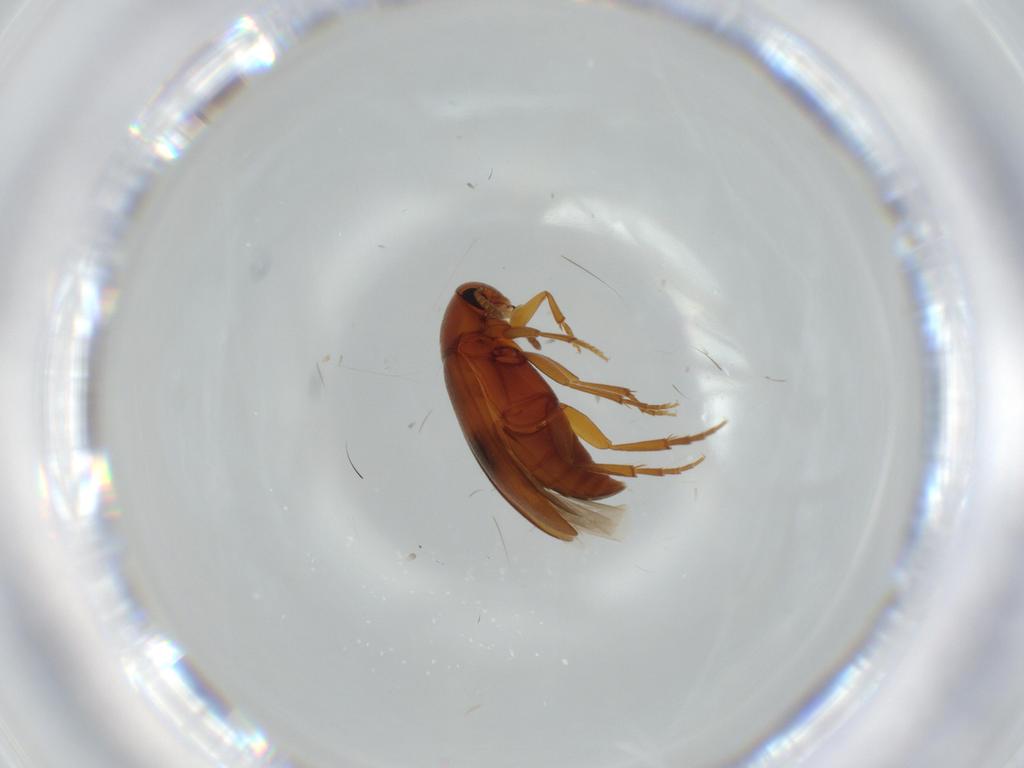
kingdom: Animalia
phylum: Arthropoda
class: Insecta
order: Coleoptera
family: Scraptiidae
